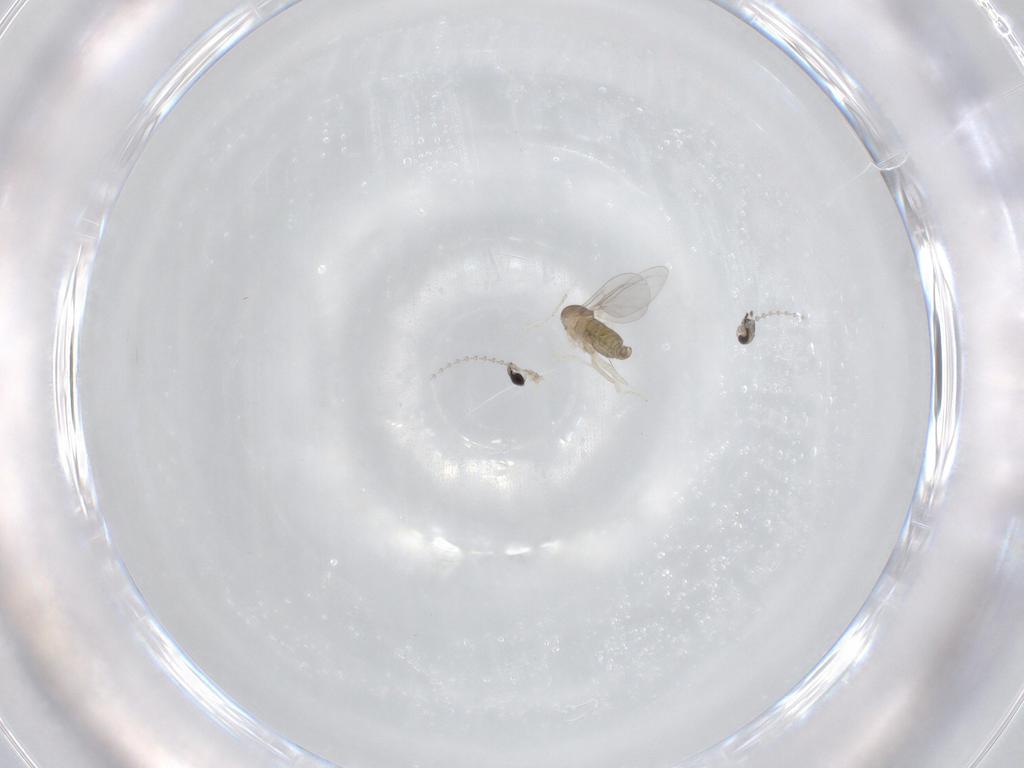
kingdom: Animalia
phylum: Arthropoda
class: Insecta
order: Diptera
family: Cecidomyiidae
